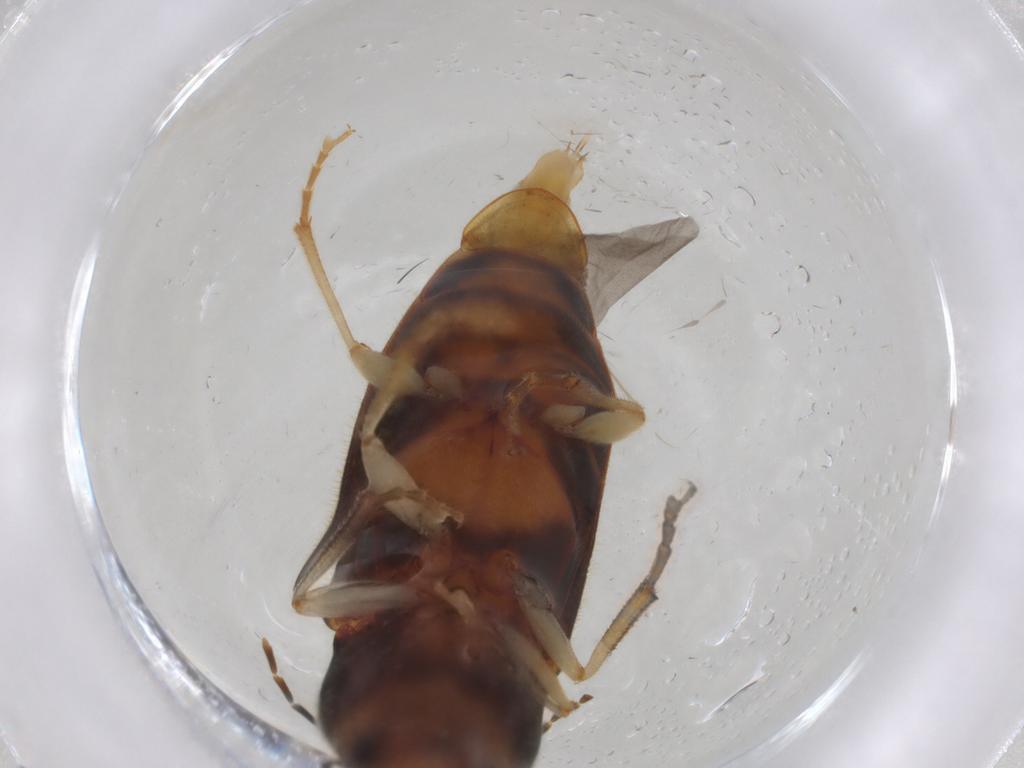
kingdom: Animalia
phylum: Arthropoda
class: Insecta
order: Coleoptera
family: Elateridae
